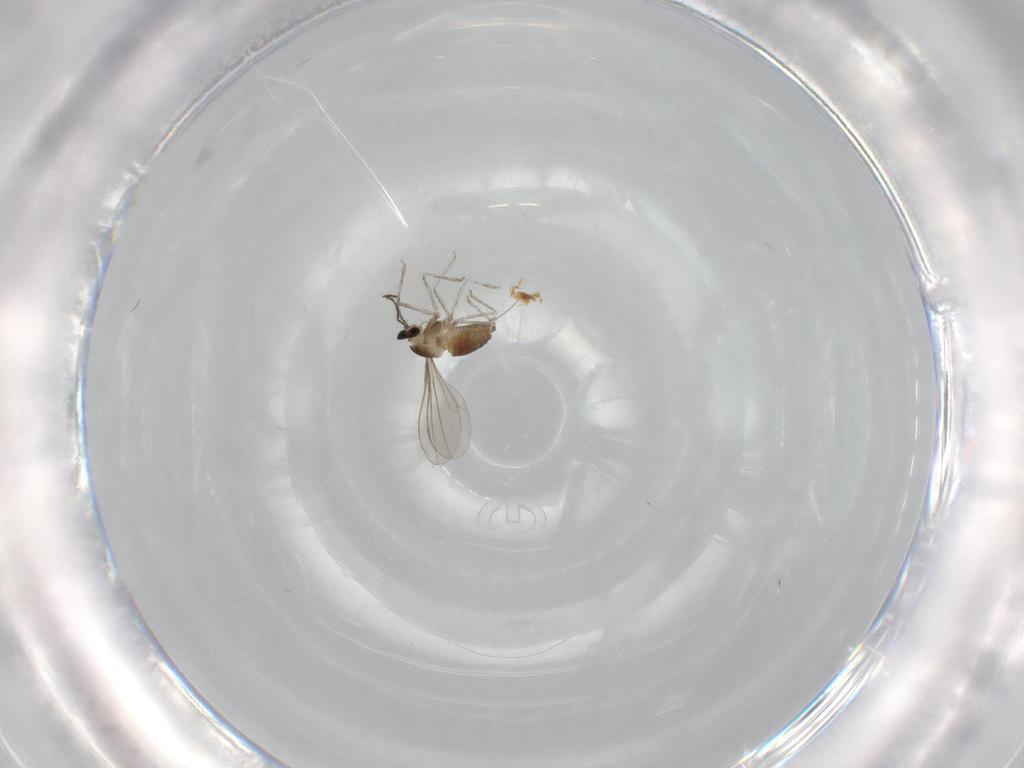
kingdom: Animalia
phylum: Arthropoda
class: Insecta
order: Diptera
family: Cecidomyiidae
